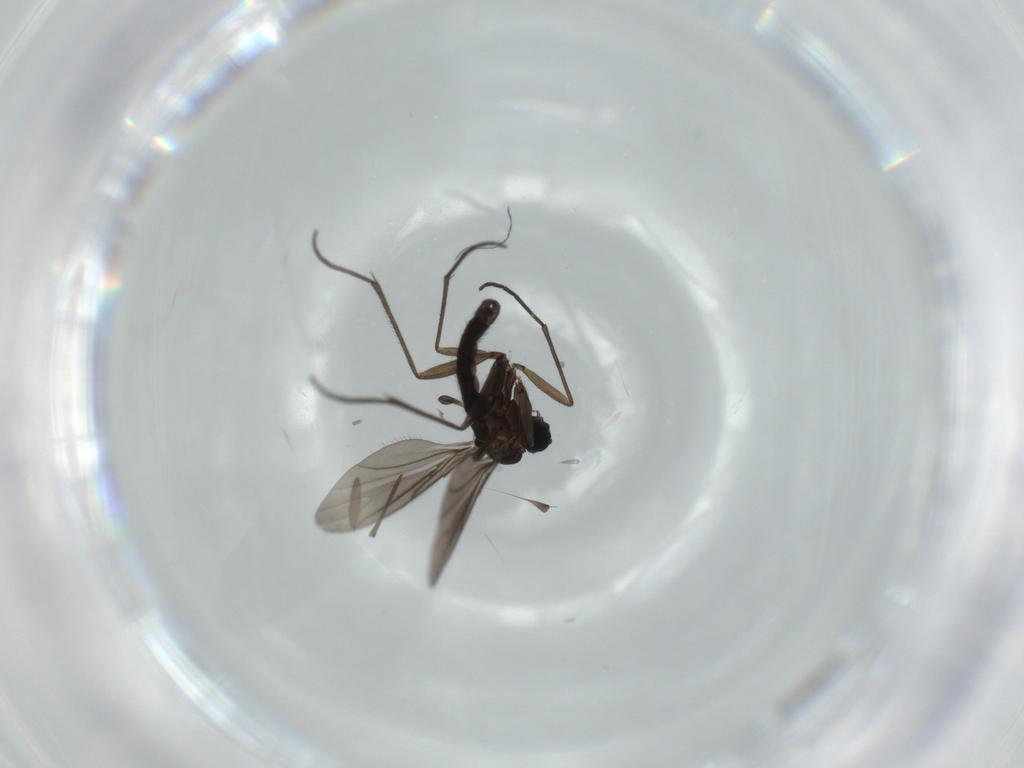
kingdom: Animalia
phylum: Arthropoda
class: Insecta
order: Diptera
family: Sciaridae
